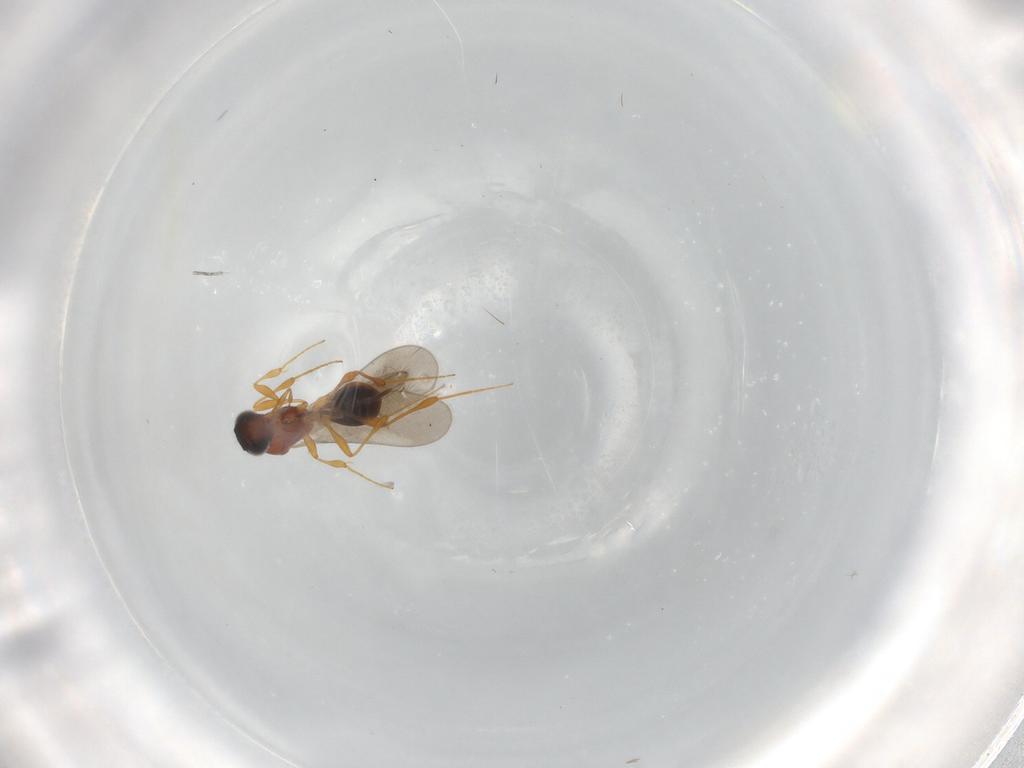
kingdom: Animalia
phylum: Arthropoda
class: Insecta
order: Hymenoptera
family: Platygastridae
